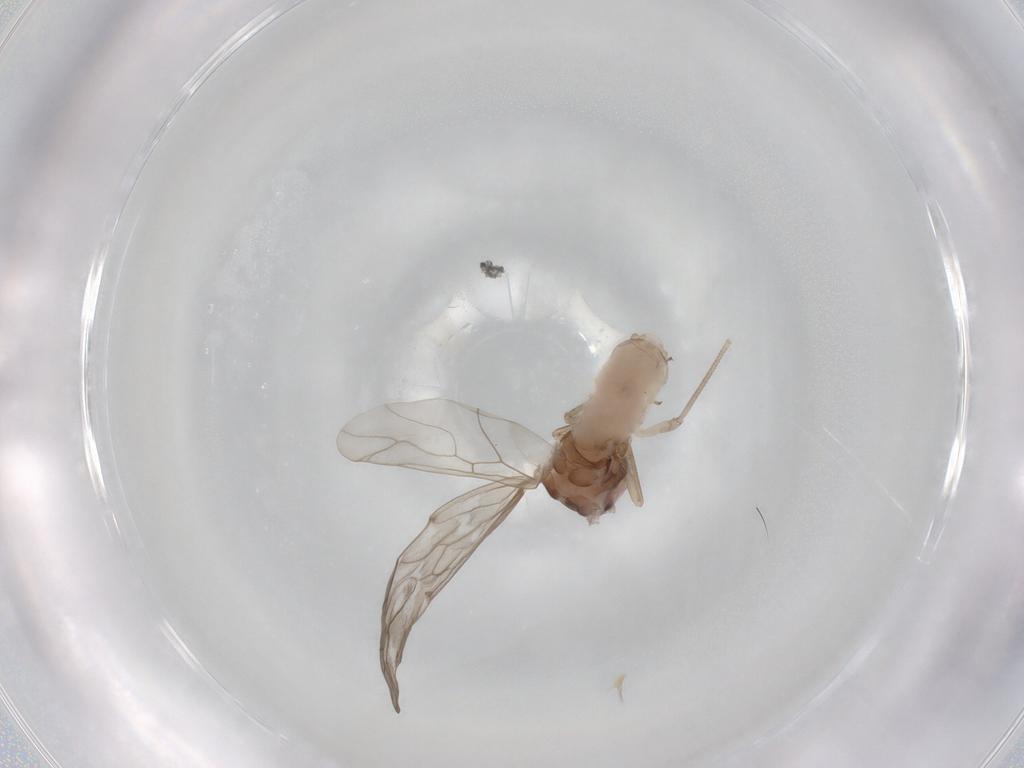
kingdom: Animalia
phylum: Arthropoda
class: Insecta
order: Psocodea
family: Peripsocidae
